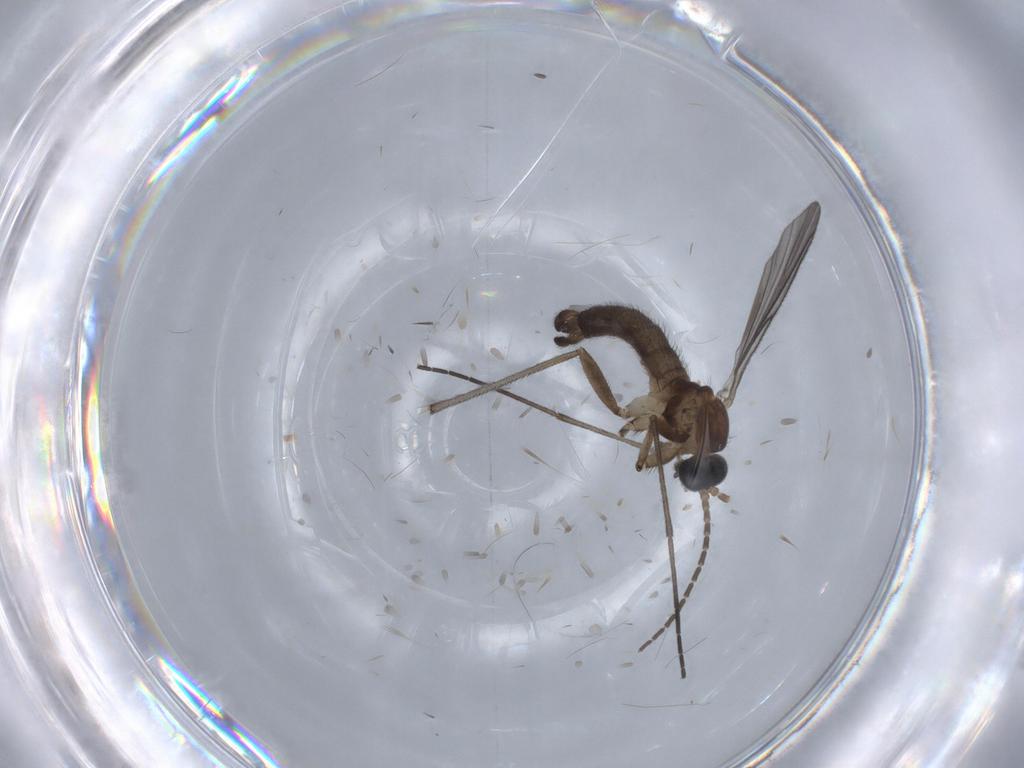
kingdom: Animalia
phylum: Arthropoda
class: Insecta
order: Diptera
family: Sciaridae
